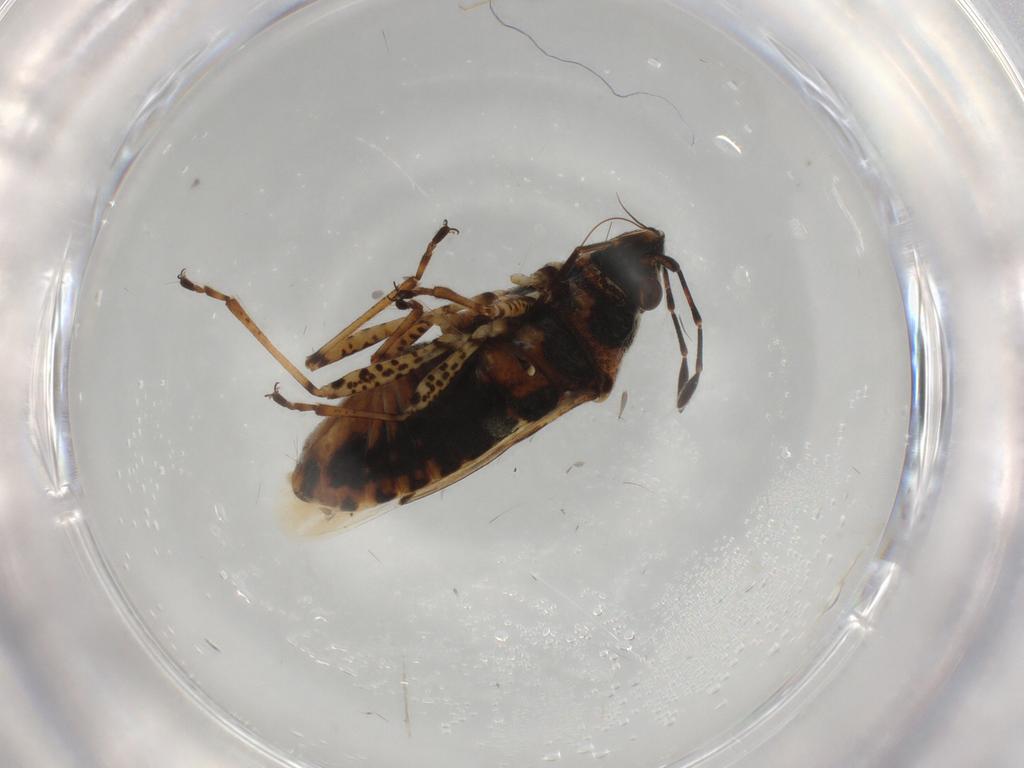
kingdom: Animalia
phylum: Arthropoda
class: Insecta
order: Hemiptera
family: Lygaeidae
